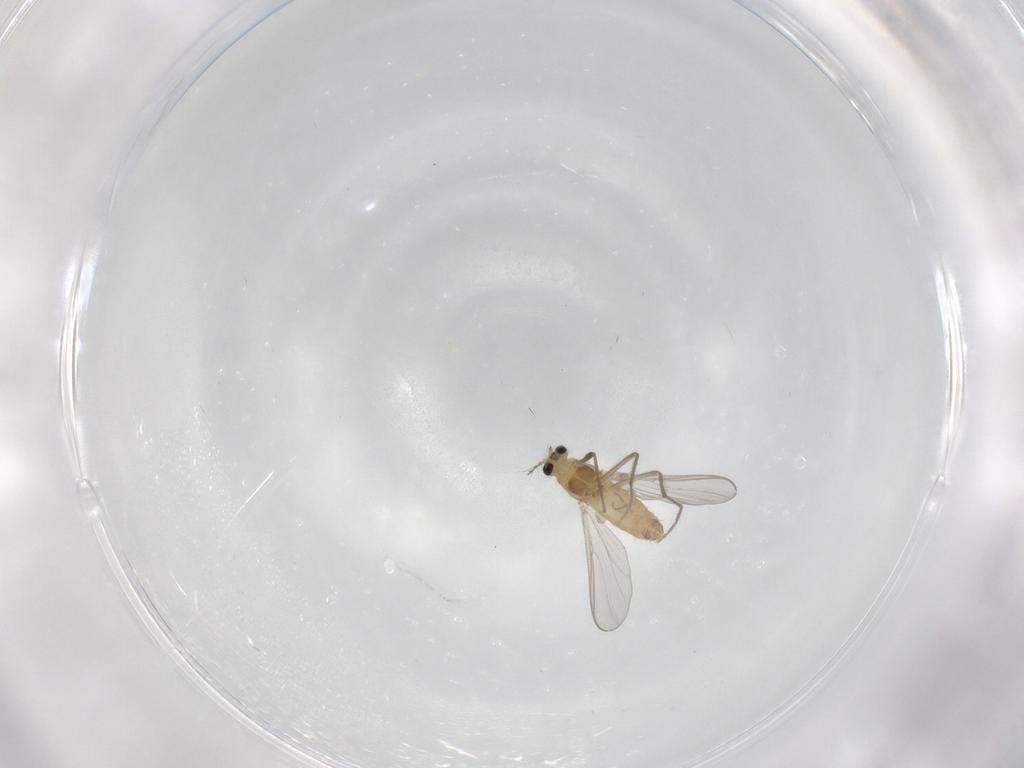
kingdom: Animalia
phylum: Arthropoda
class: Insecta
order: Diptera
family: Chironomidae
